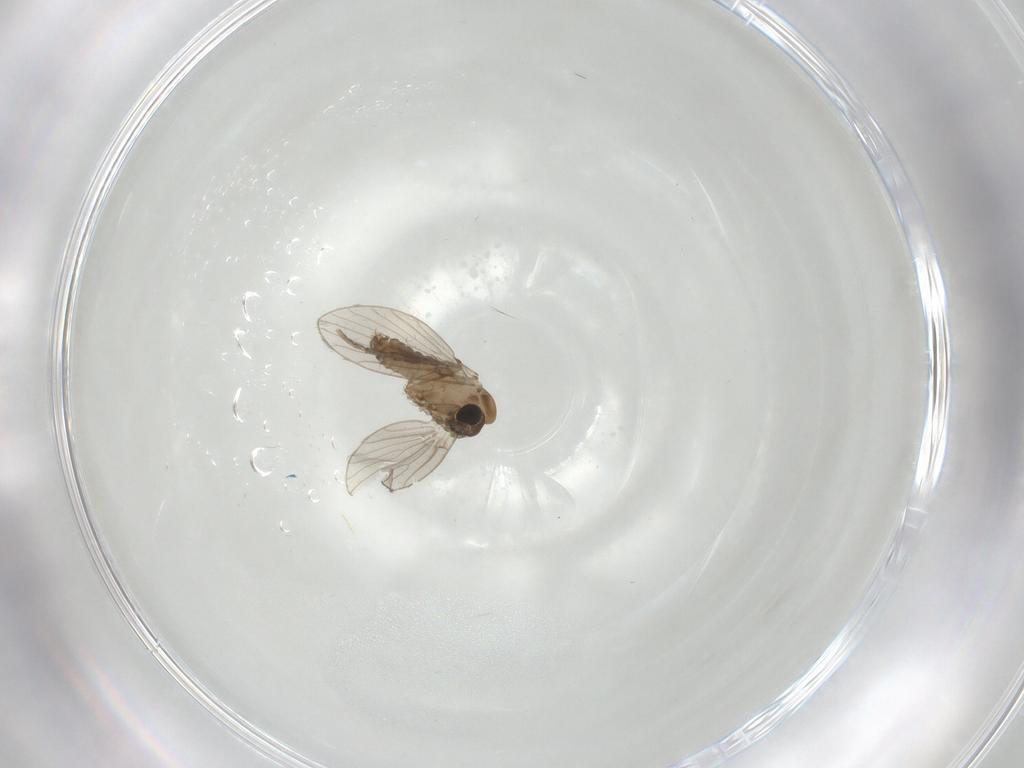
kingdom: Animalia
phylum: Arthropoda
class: Insecta
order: Diptera
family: Psychodidae
